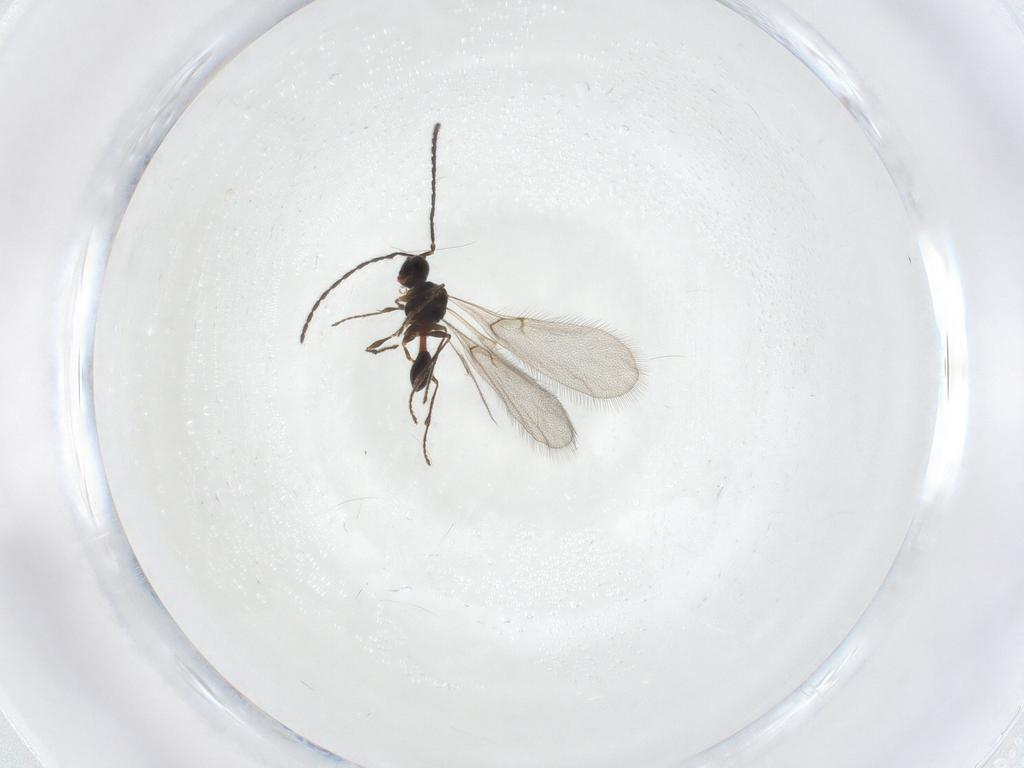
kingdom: Animalia
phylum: Arthropoda
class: Insecta
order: Hymenoptera
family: Diapriidae
